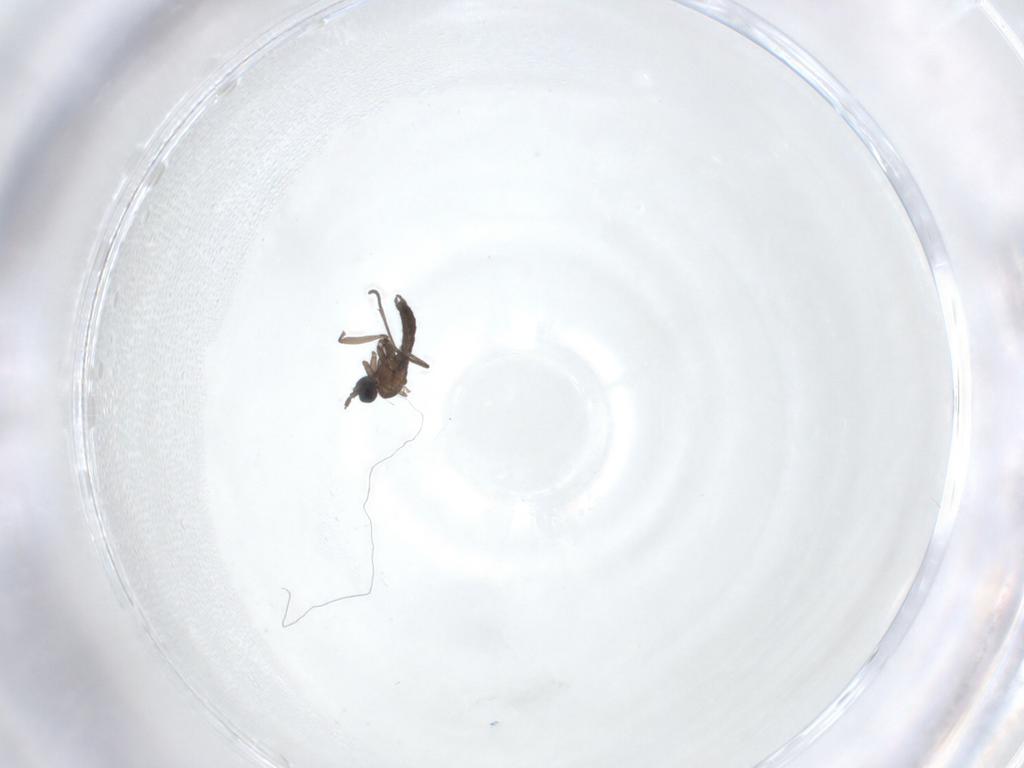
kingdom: Animalia
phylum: Arthropoda
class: Insecta
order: Diptera
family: Sciaridae
